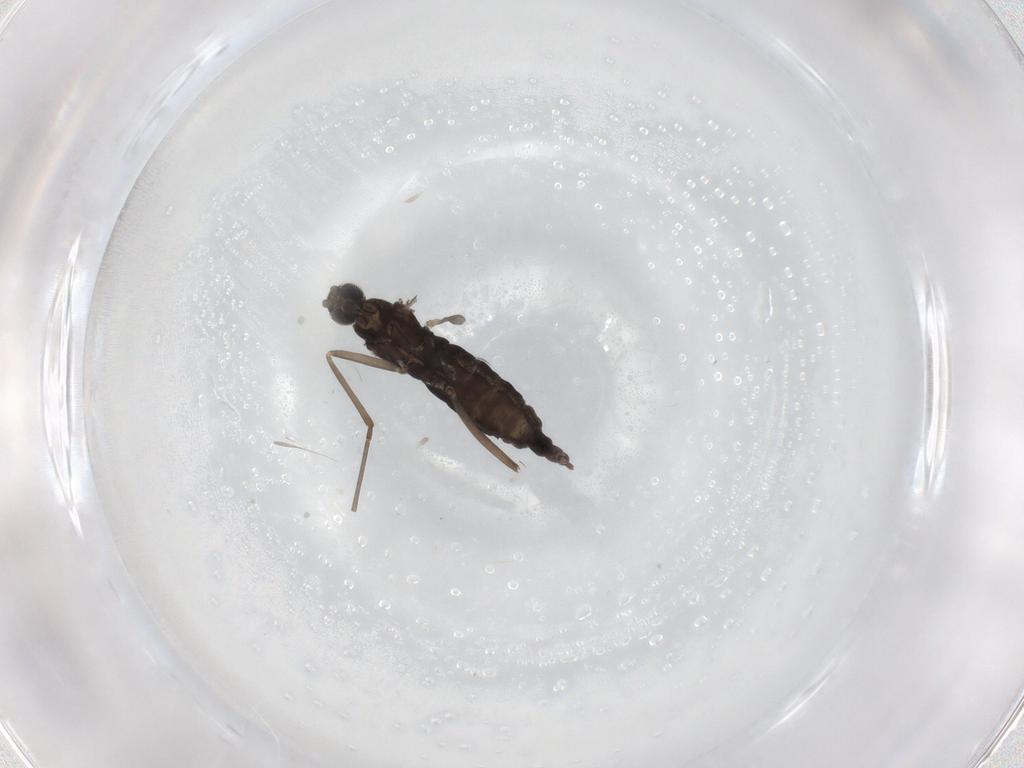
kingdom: Animalia
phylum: Arthropoda
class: Insecta
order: Diptera
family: Cecidomyiidae
